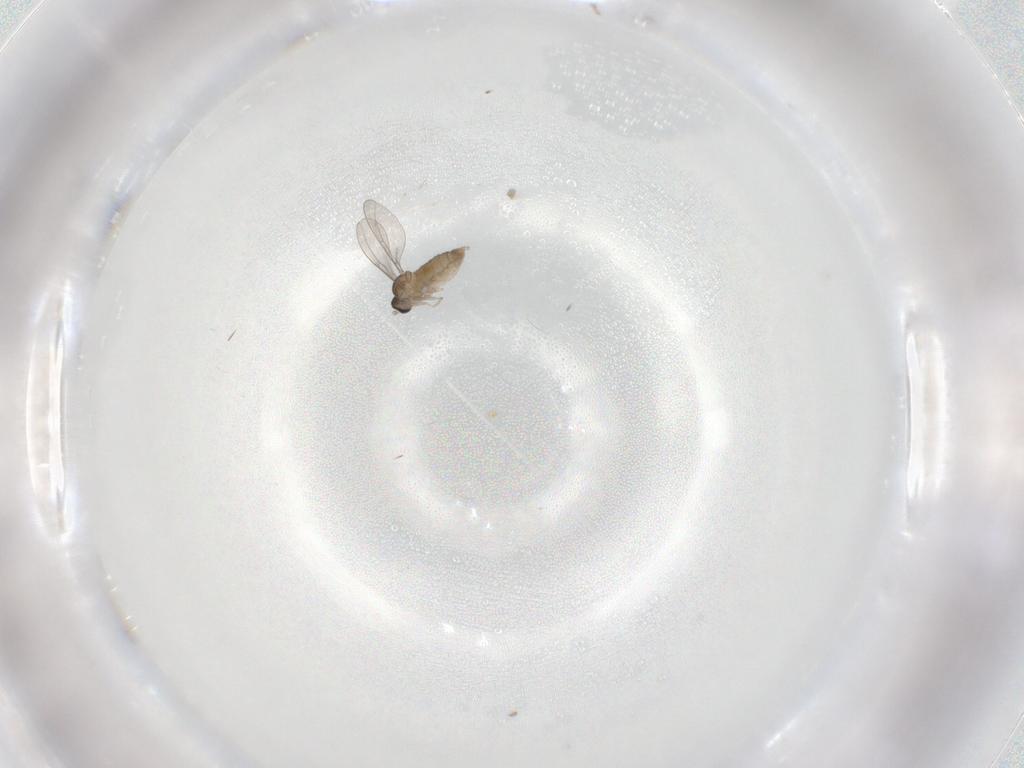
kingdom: Animalia
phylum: Arthropoda
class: Insecta
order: Diptera
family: Cecidomyiidae
